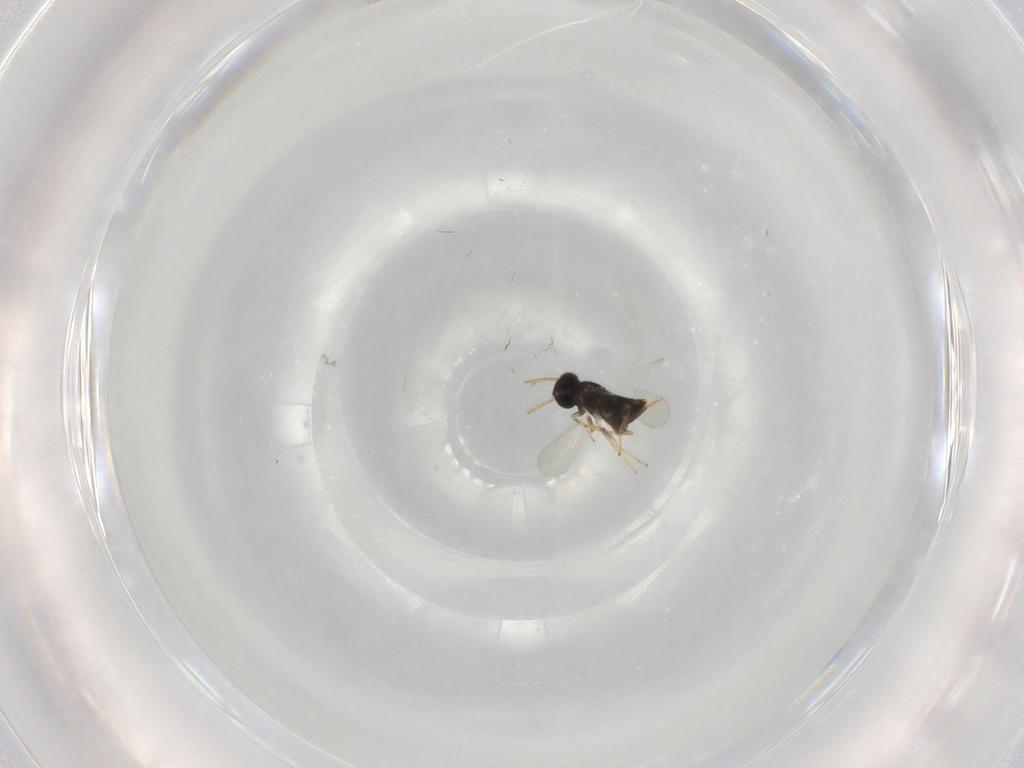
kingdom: Animalia
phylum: Arthropoda
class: Insecta
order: Hymenoptera
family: Aphelinidae
